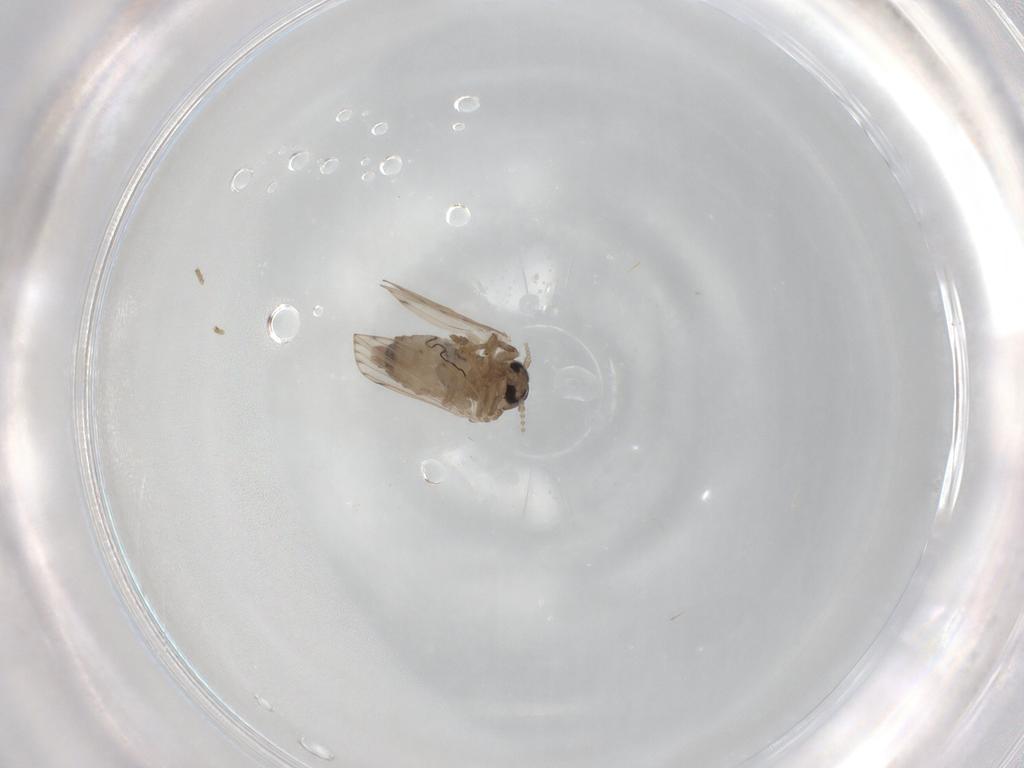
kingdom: Animalia
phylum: Arthropoda
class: Insecta
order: Diptera
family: Psychodidae
